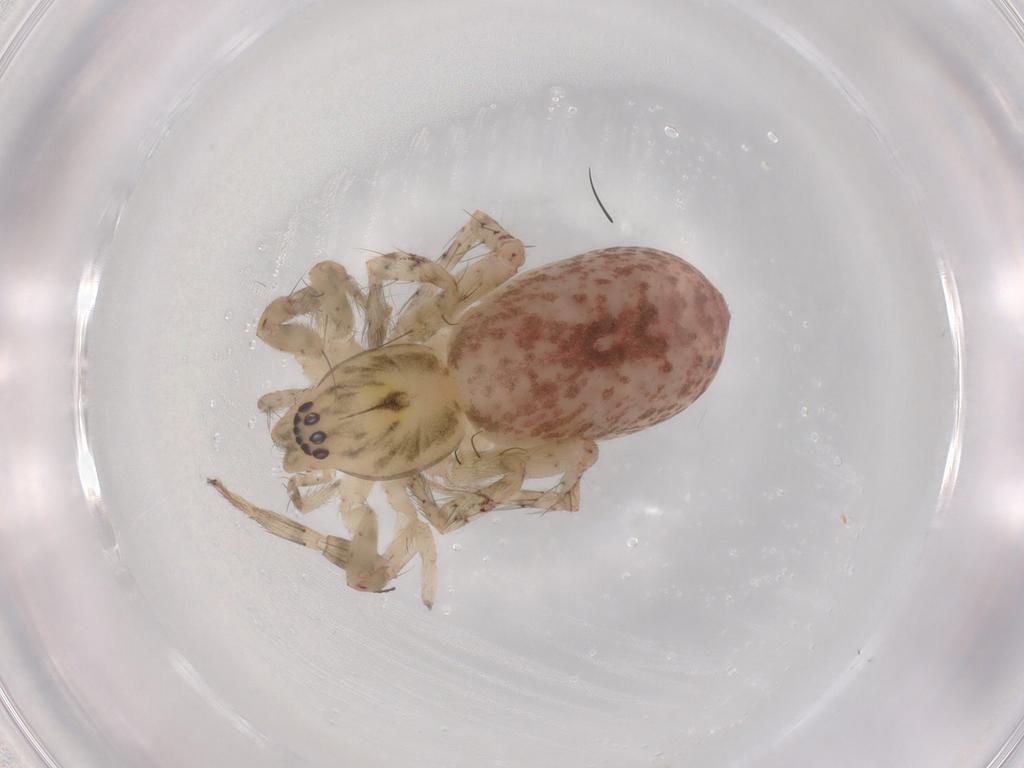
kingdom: Animalia
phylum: Arthropoda
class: Arachnida
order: Araneae
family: Anyphaenidae
